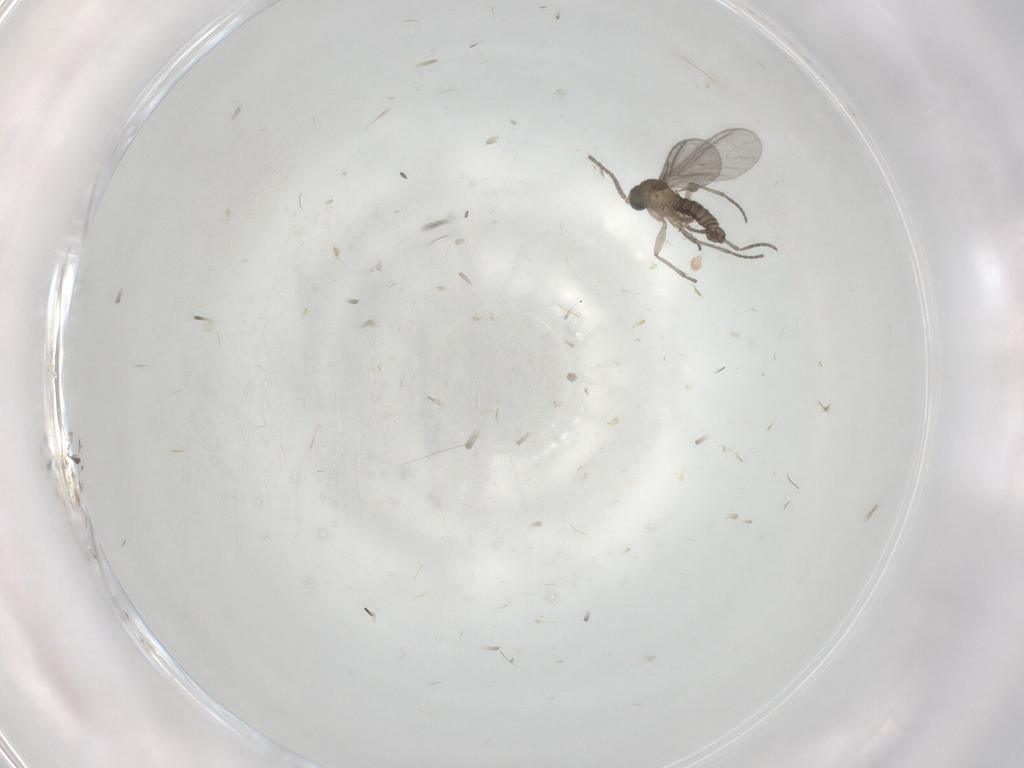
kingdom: Animalia
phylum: Arthropoda
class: Insecta
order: Diptera
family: Sciaridae
